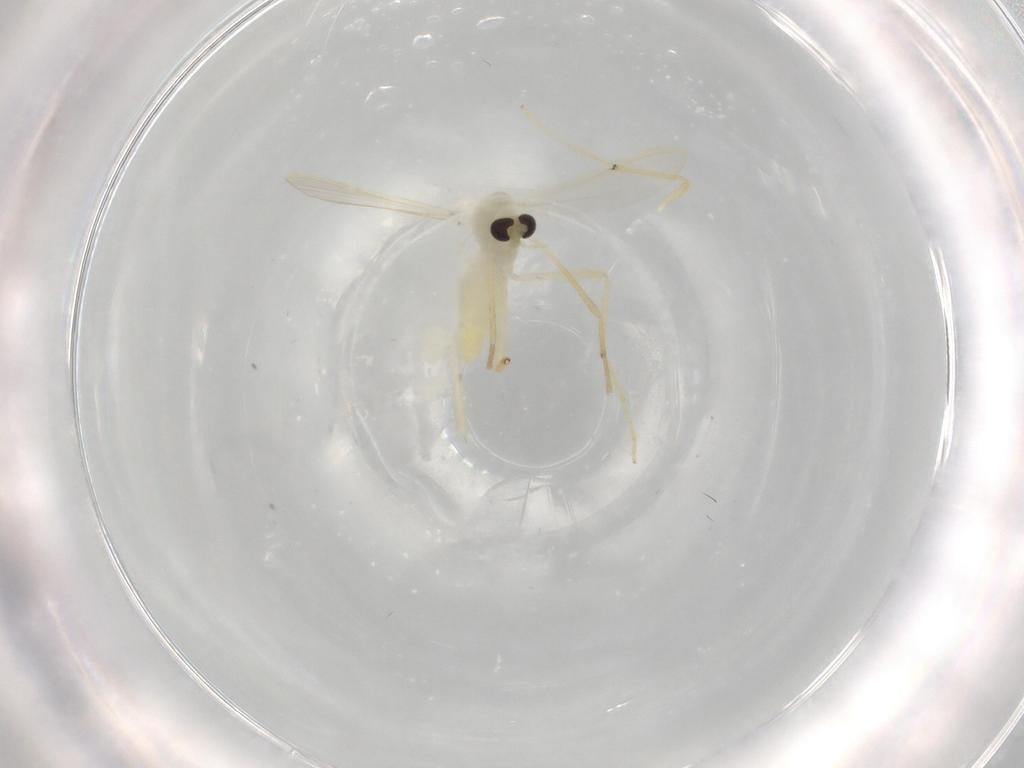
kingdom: Animalia
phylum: Arthropoda
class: Insecta
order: Diptera
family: Chironomidae
